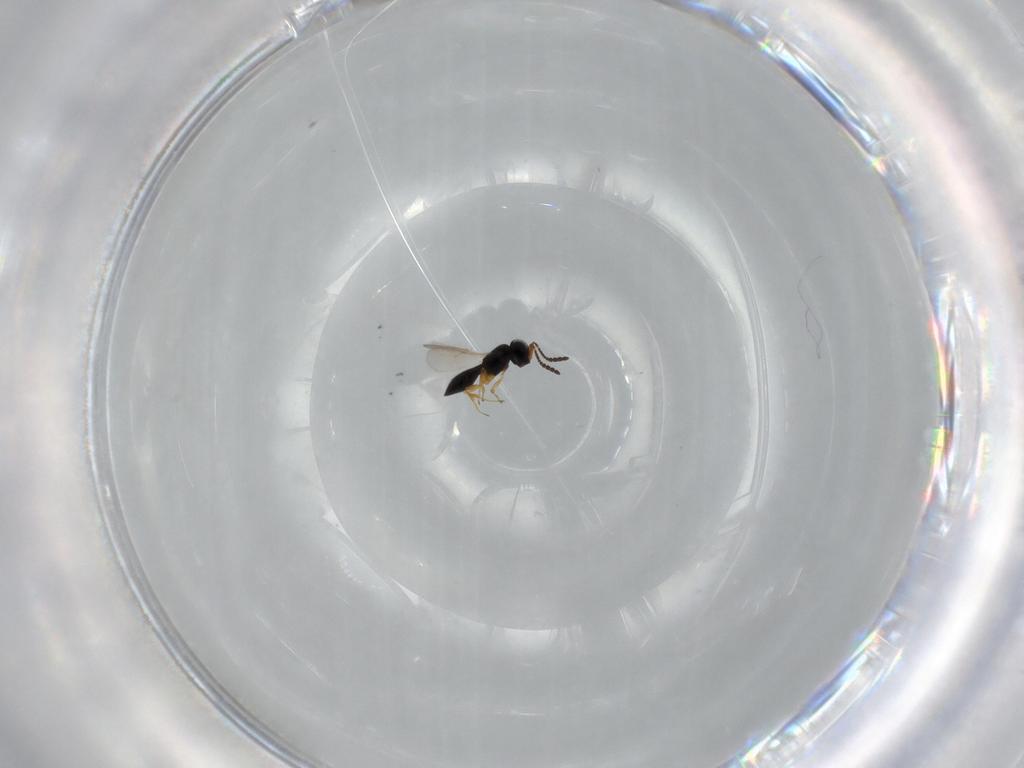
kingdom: Animalia
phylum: Arthropoda
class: Insecta
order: Hymenoptera
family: Scelionidae
